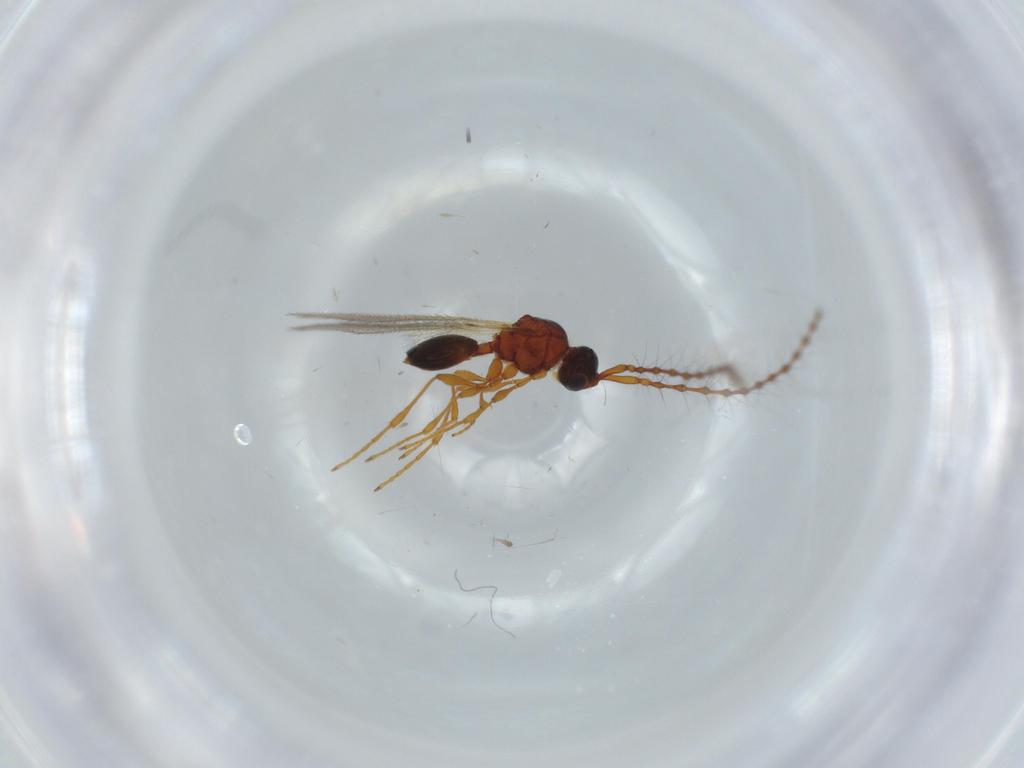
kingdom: Animalia
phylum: Arthropoda
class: Insecta
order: Hymenoptera
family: Diapriidae
